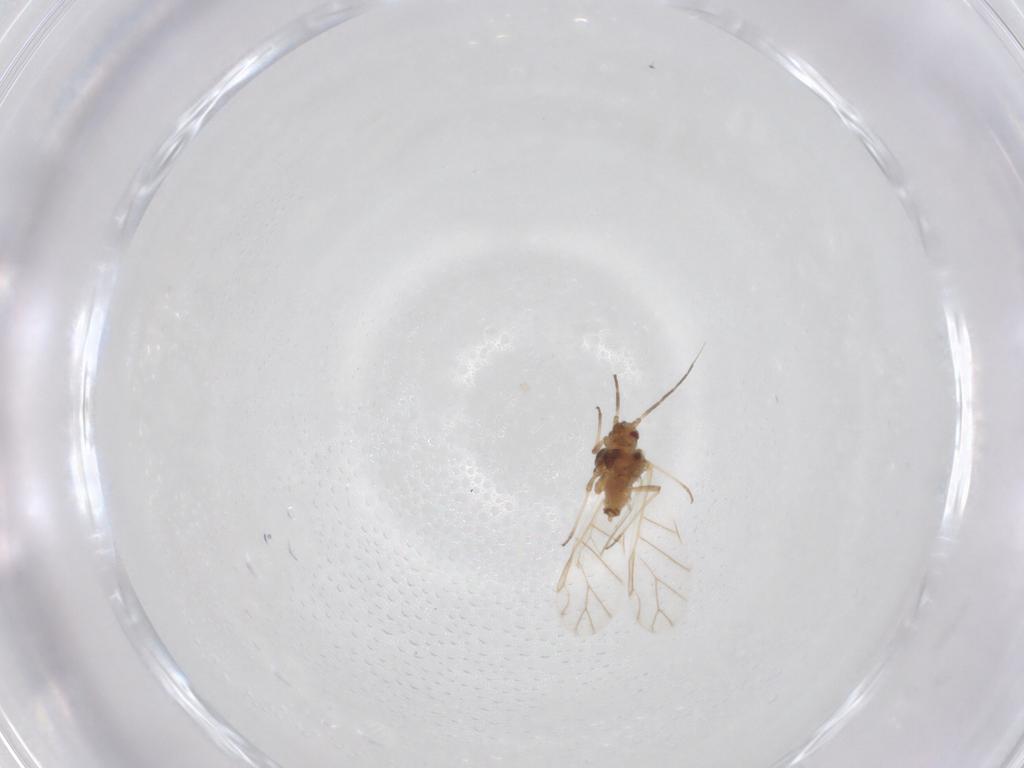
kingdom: Animalia
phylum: Arthropoda
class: Insecta
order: Hemiptera
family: Aphididae
